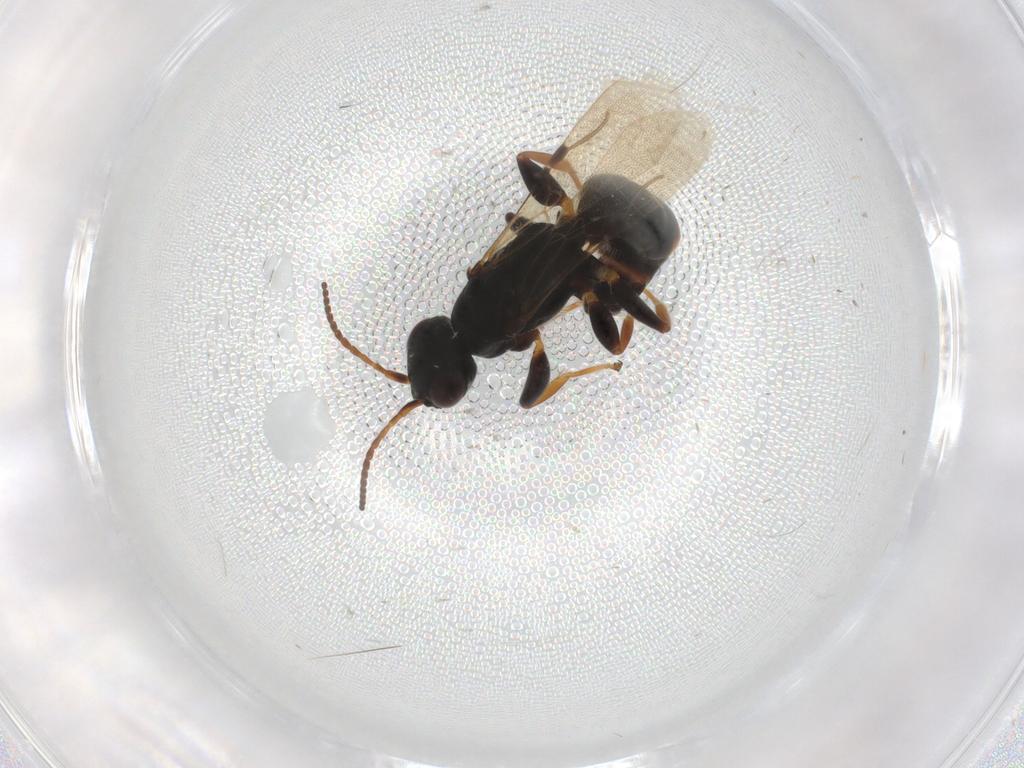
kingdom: Animalia
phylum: Arthropoda
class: Insecta
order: Hymenoptera
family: Bethylidae
